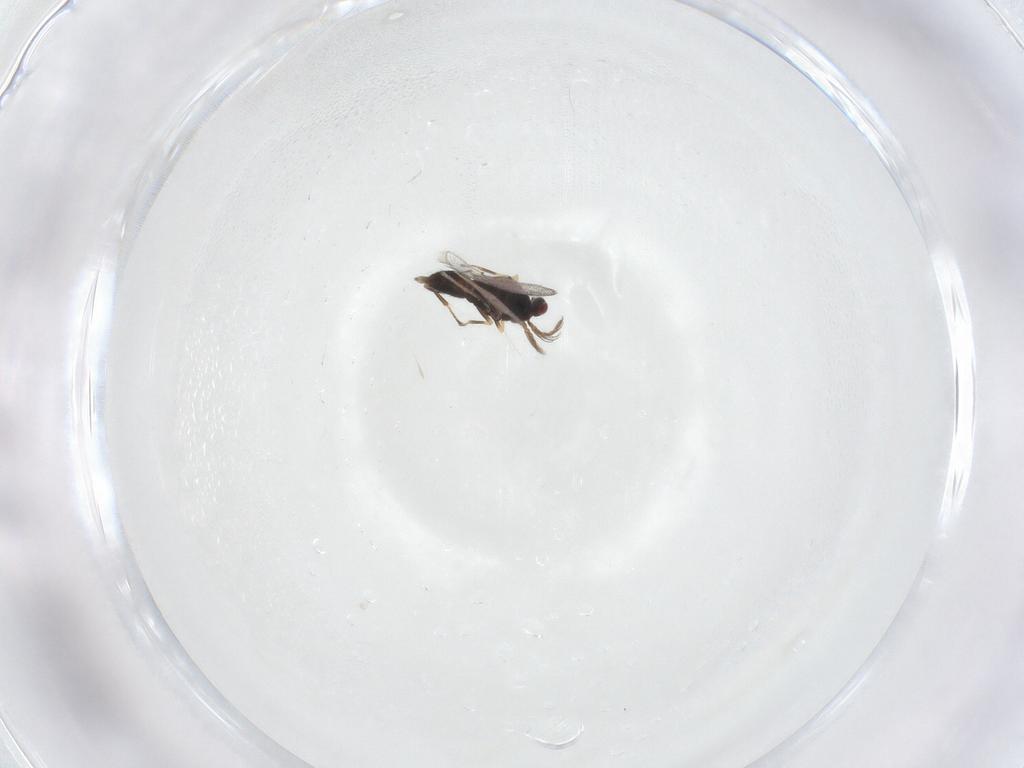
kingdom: Animalia
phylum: Arthropoda
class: Insecta
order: Hymenoptera
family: Eulophidae
